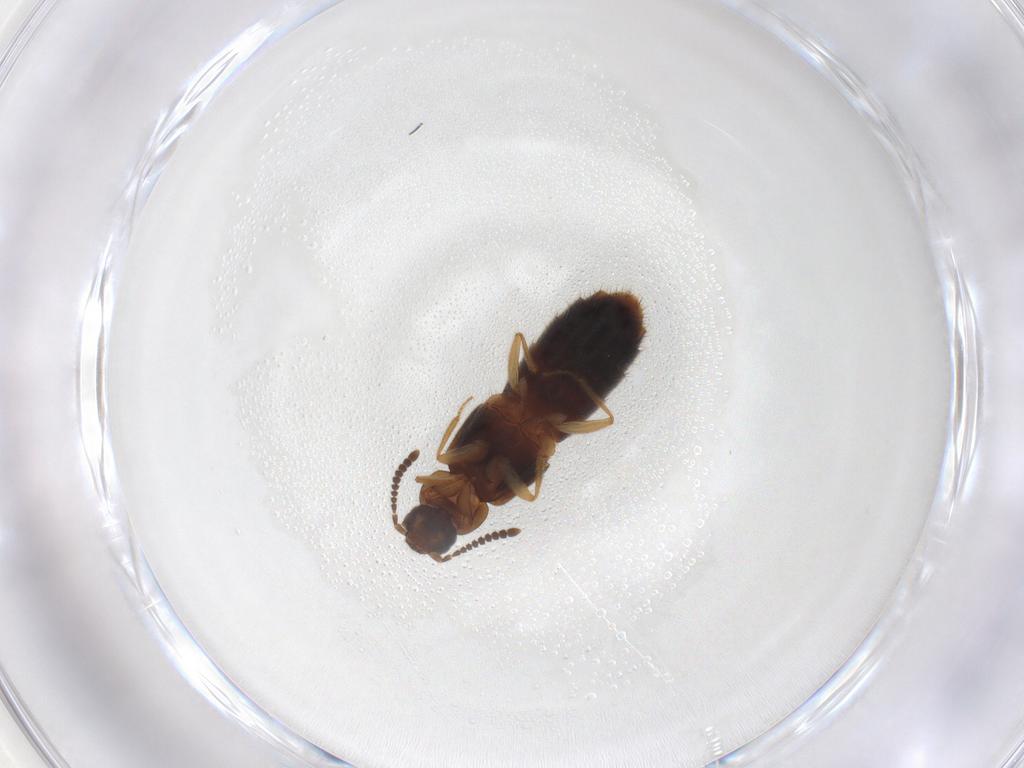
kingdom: Animalia
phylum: Arthropoda
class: Insecta
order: Coleoptera
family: Staphylinidae
